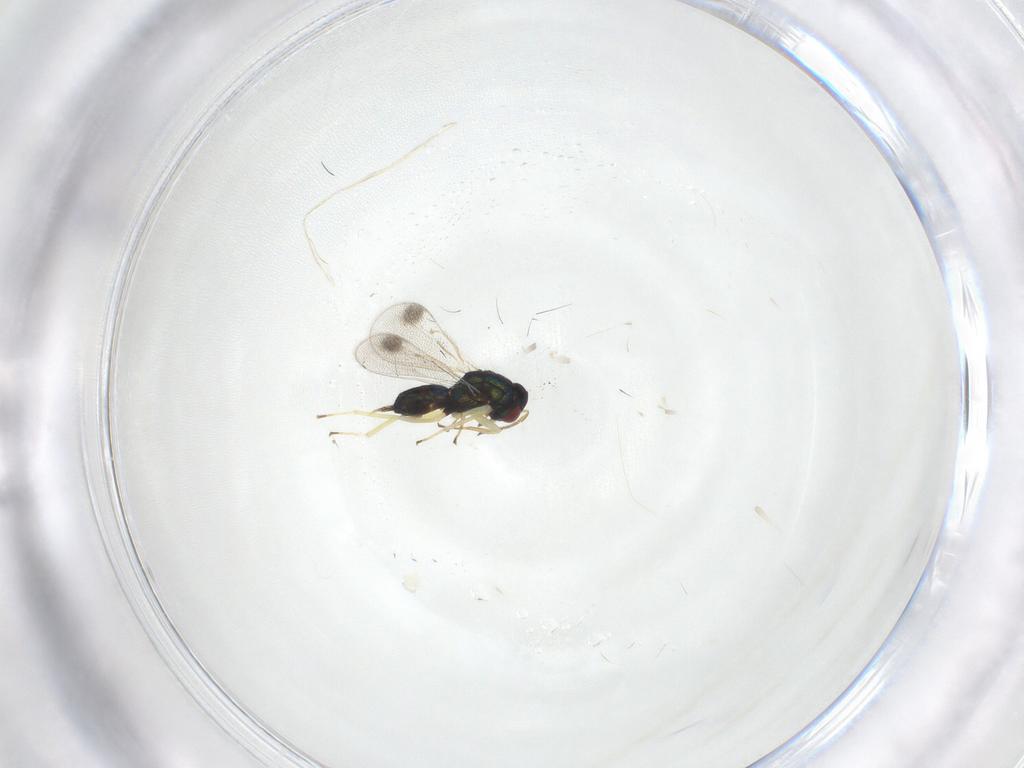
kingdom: Animalia
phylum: Arthropoda
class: Insecta
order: Hymenoptera
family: Eulophidae
